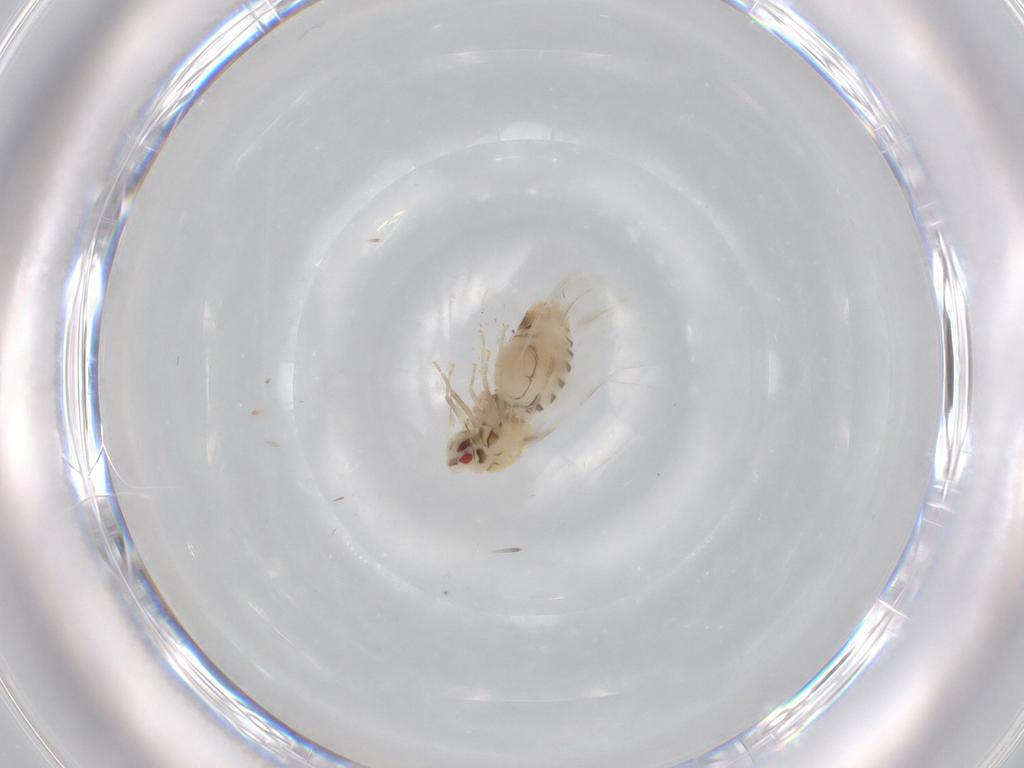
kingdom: Animalia
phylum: Arthropoda
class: Insecta
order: Hemiptera
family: Aleyrodidae
